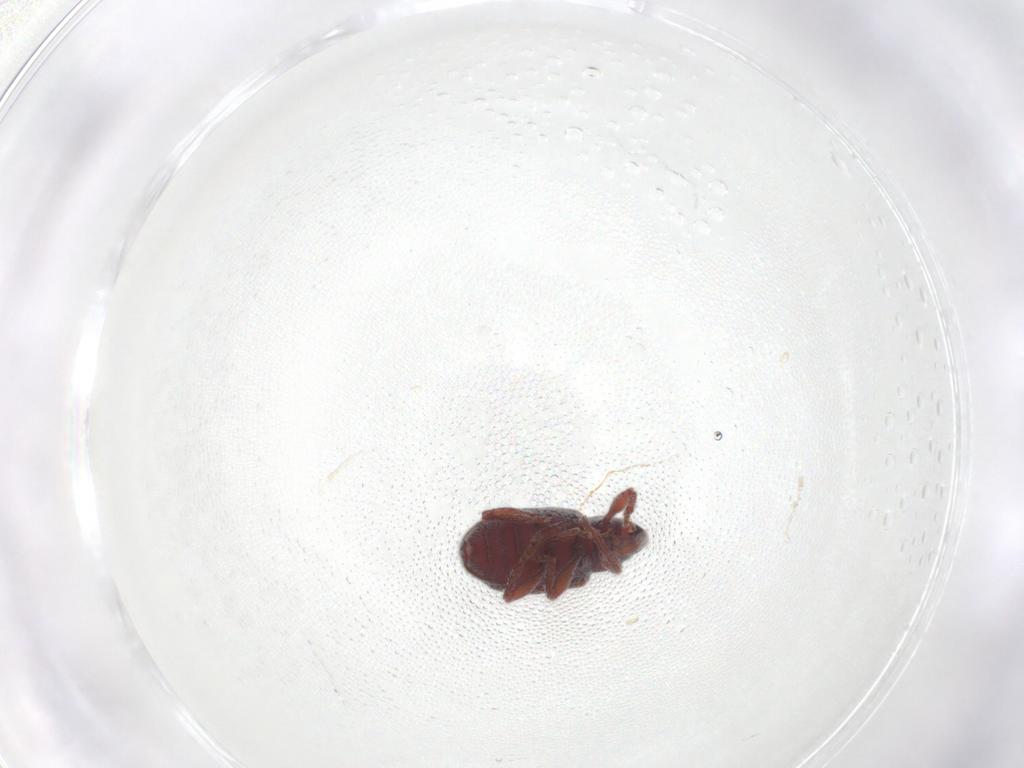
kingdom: Animalia
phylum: Arthropoda
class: Insecta
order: Coleoptera
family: Curculionidae
